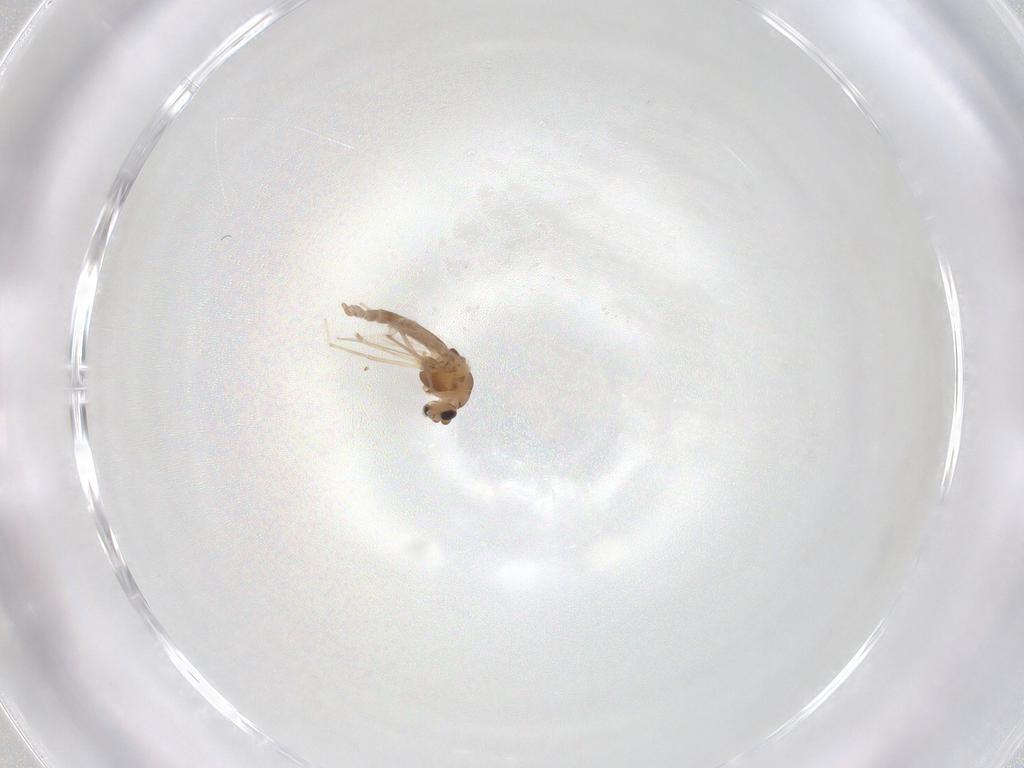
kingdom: Animalia
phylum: Arthropoda
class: Insecta
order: Diptera
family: Chironomidae
